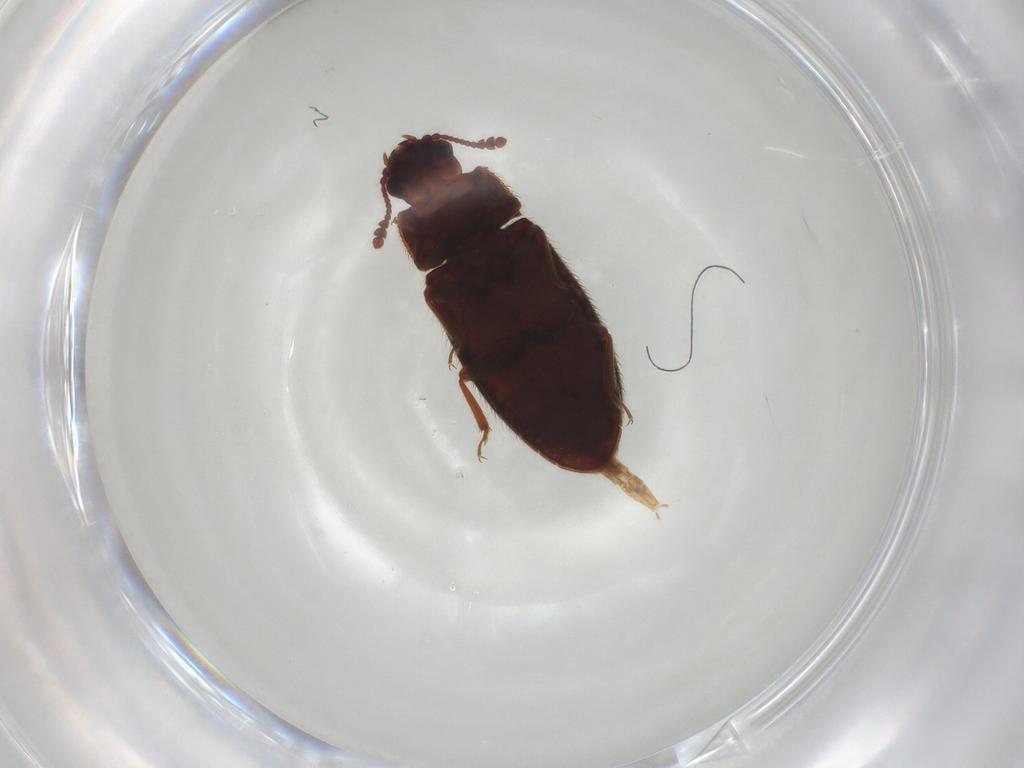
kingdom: Animalia
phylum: Arthropoda
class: Insecta
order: Coleoptera
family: Biphyllidae
